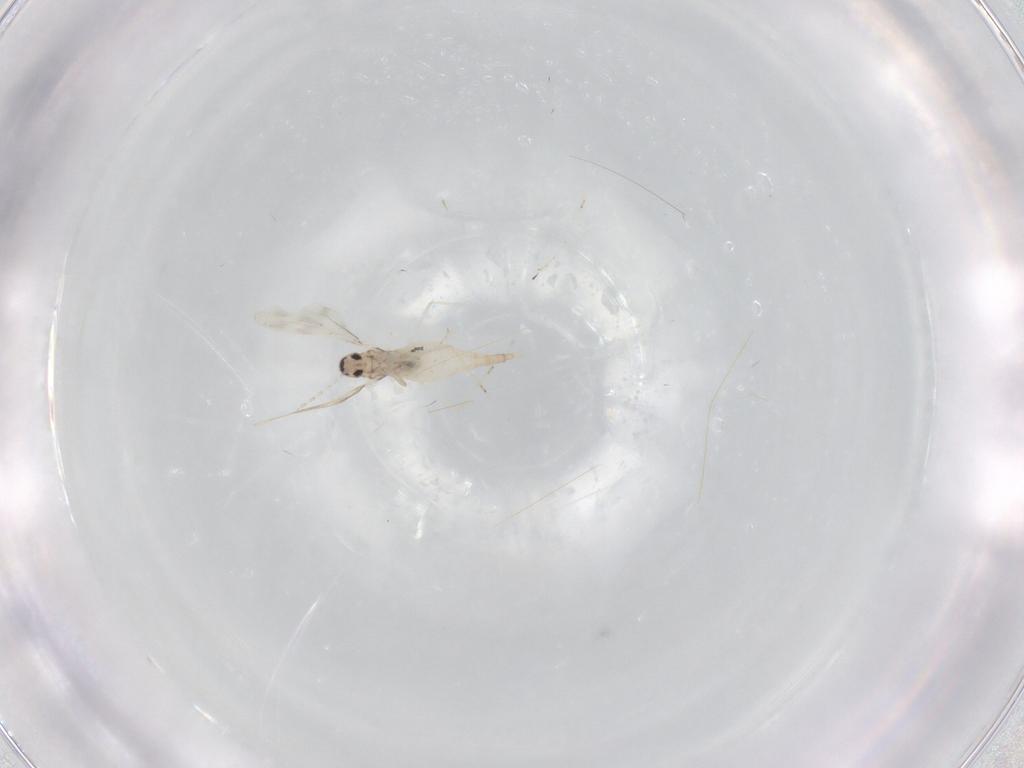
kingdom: Animalia
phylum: Arthropoda
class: Insecta
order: Diptera
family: Cecidomyiidae
